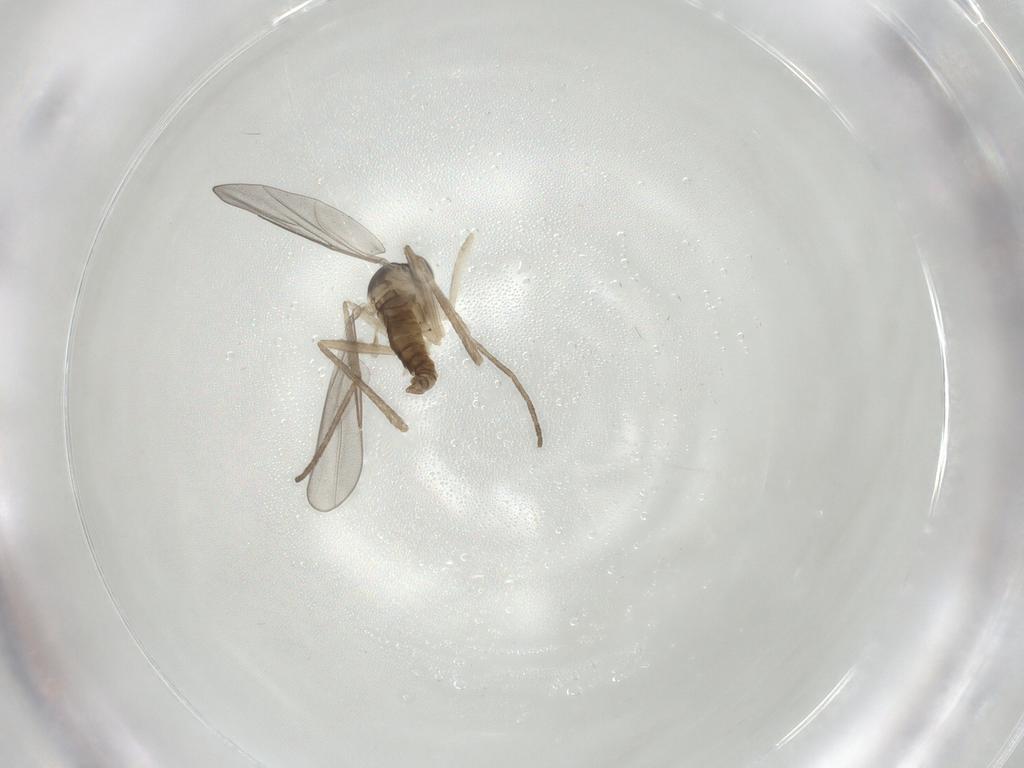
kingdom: Animalia
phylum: Arthropoda
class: Insecta
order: Diptera
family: Cecidomyiidae
